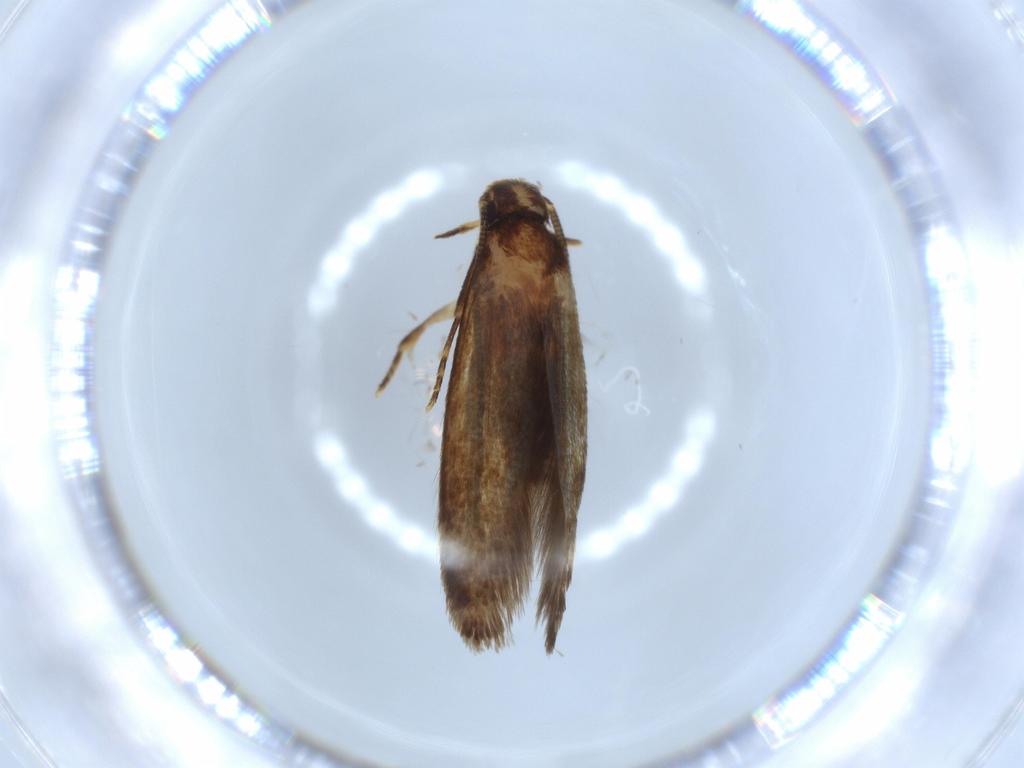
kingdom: Animalia
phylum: Arthropoda
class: Insecta
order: Lepidoptera
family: Tineidae
